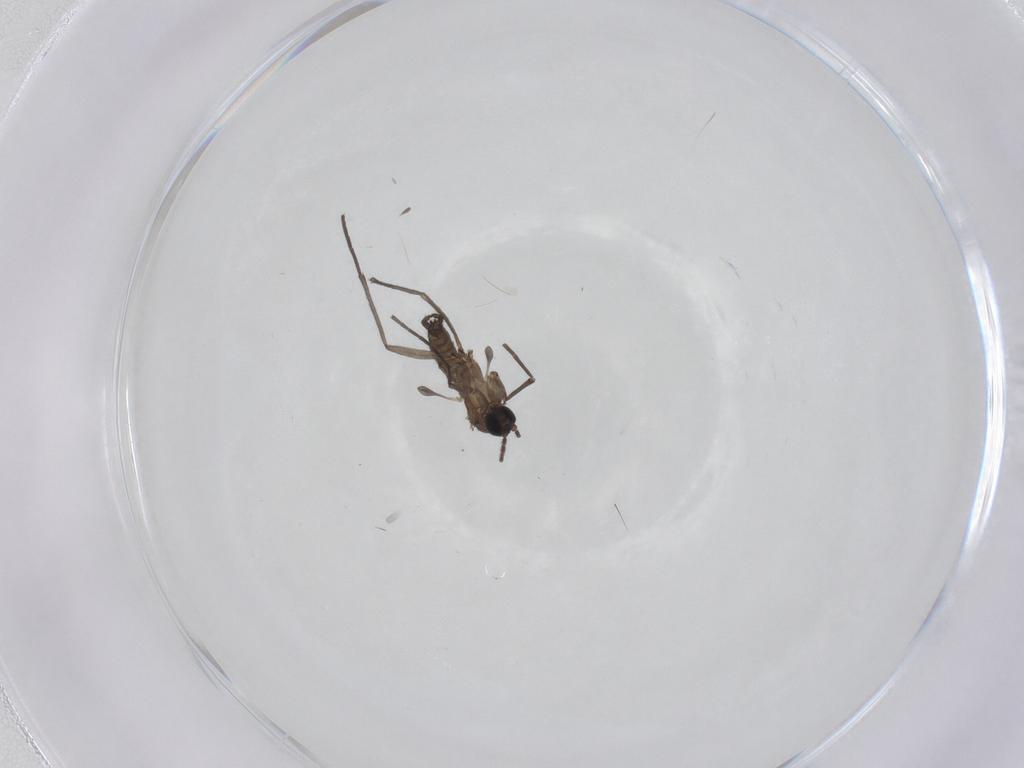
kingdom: Animalia
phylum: Arthropoda
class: Insecta
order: Diptera
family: Sciaridae
